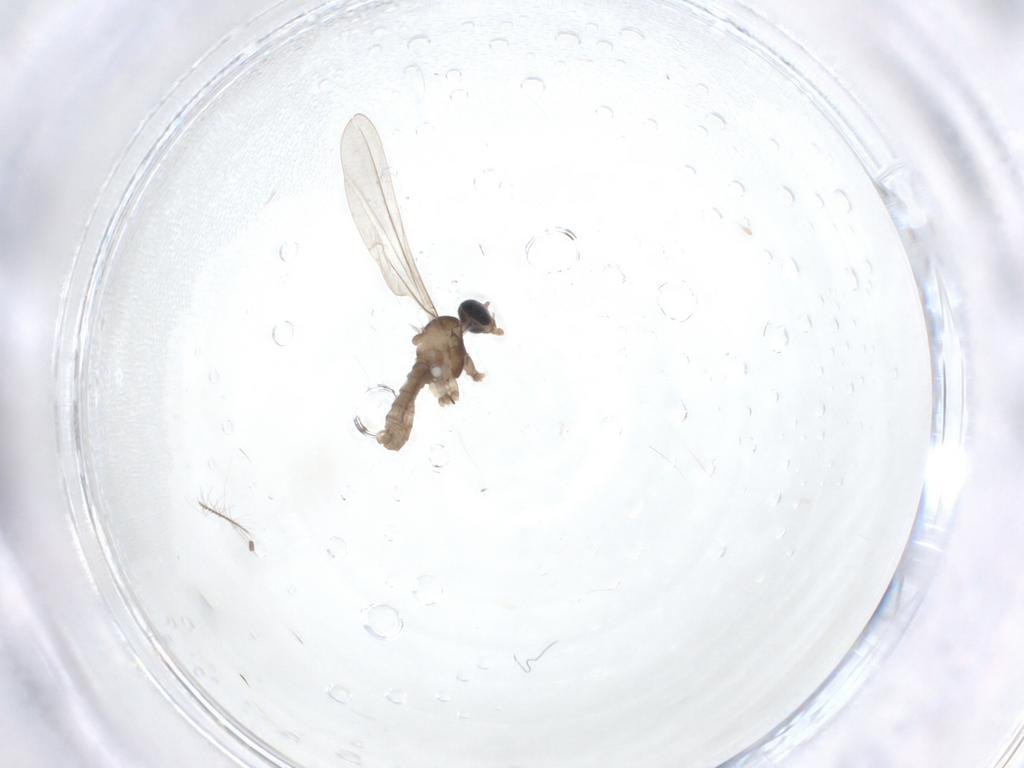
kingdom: Animalia
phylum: Arthropoda
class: Insecta
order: Diptera
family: Cecidomyiidae
